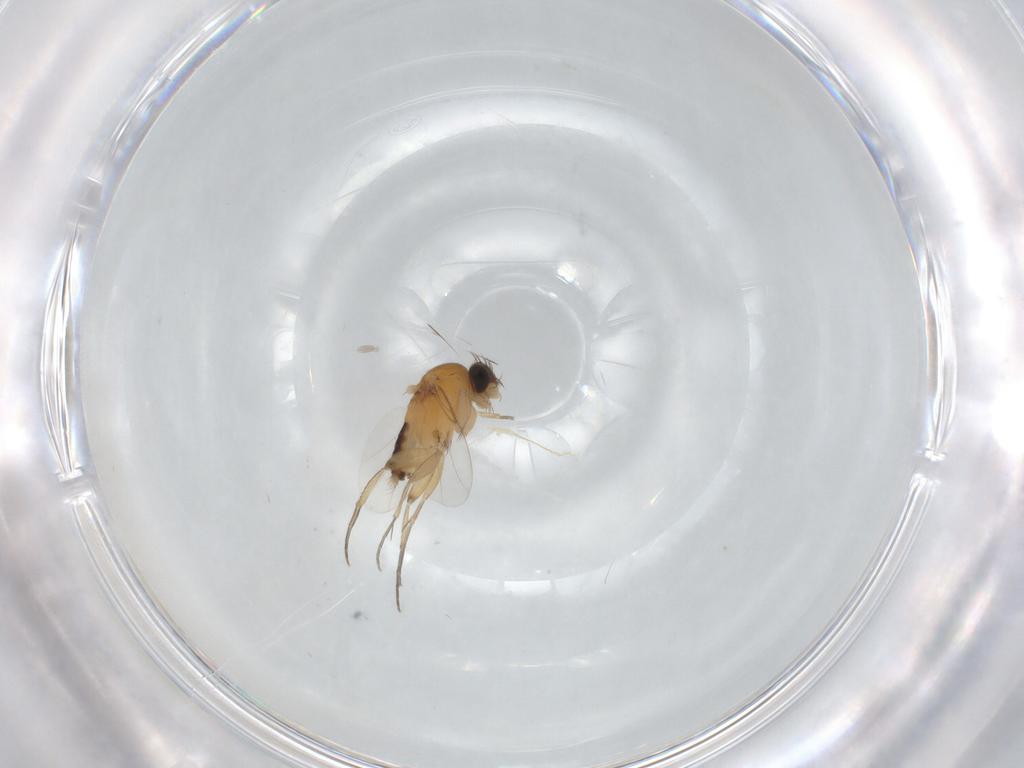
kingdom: Animalia
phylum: Arthropoda
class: Insecta
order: Diptera
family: Phoridae
